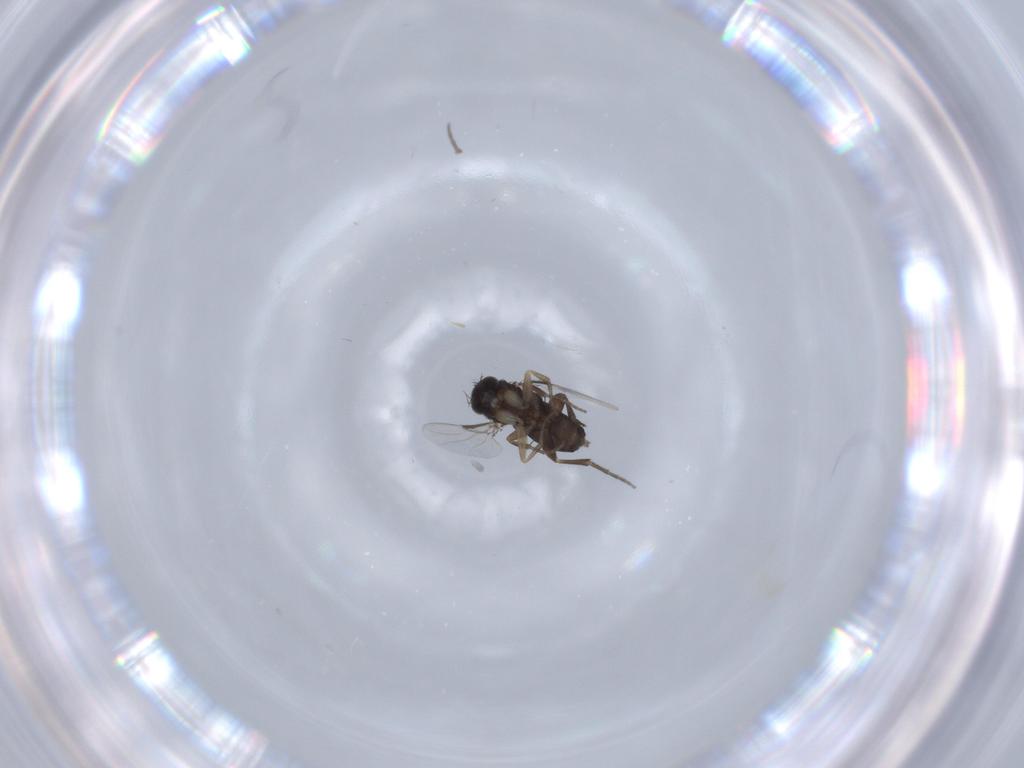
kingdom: Animalia
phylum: Arthropoda
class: Insecta
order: Diptera
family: Phoridae
